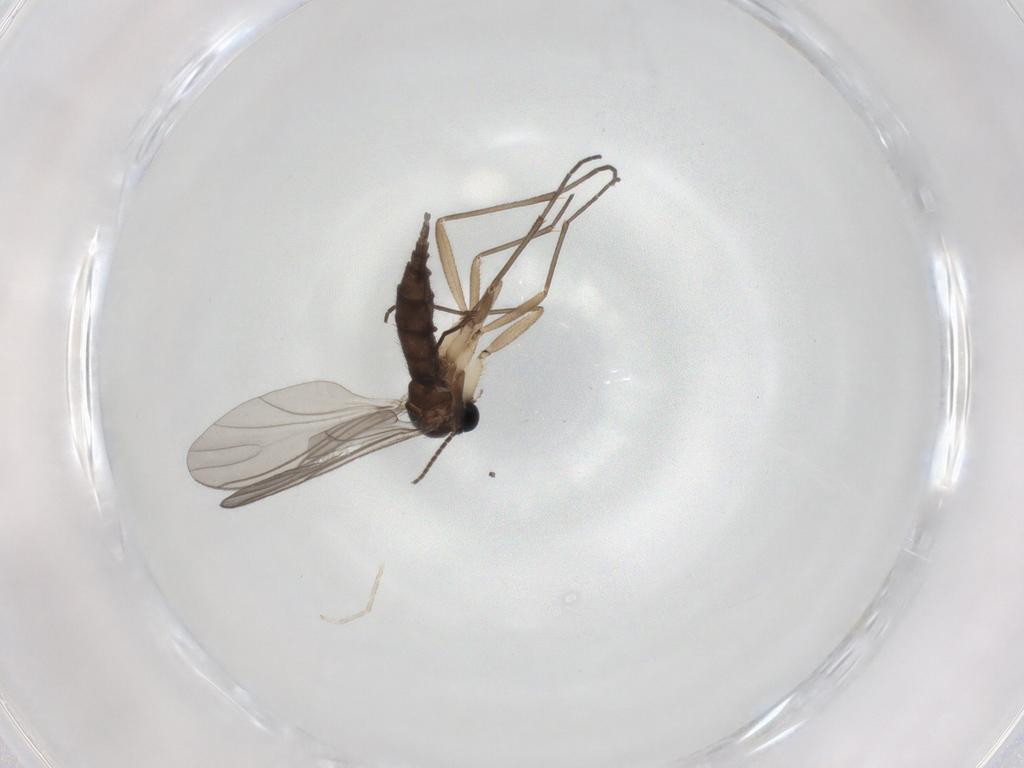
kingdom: Animalia
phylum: Arthropoda
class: Insecta
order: Diptera
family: Sciaridae
